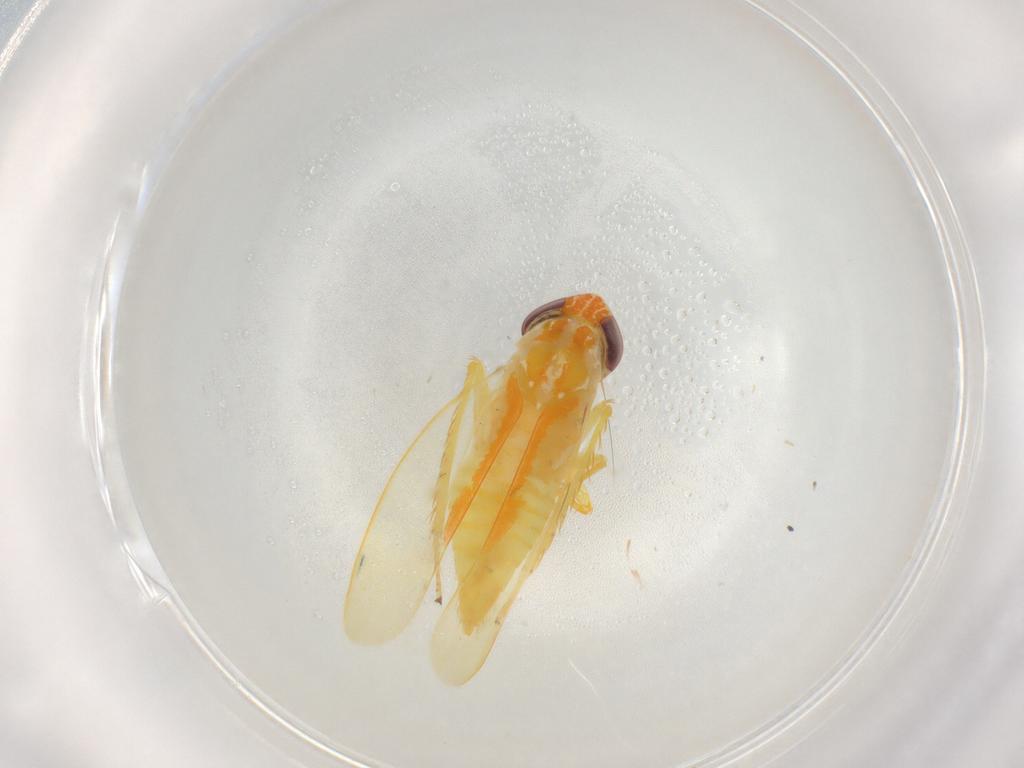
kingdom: Animalia
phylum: Arthropoda
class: Insecta
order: Hemiptera
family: Cicadellidae
